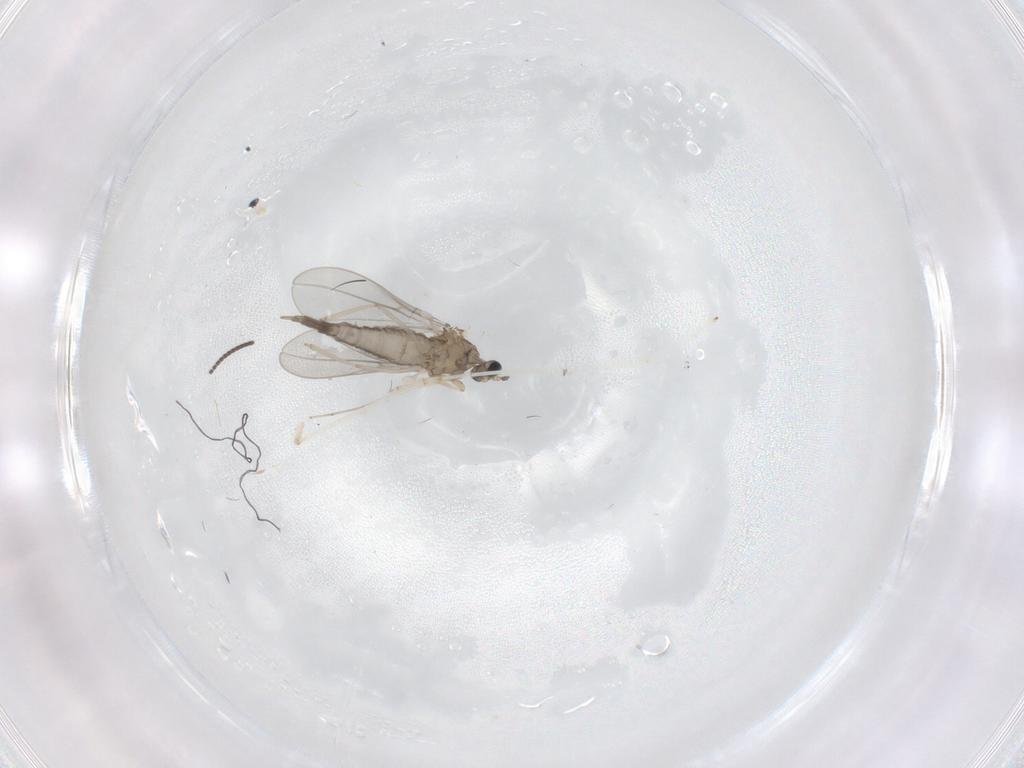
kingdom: Animalia
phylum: Arthropoda
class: Insecta
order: Diptera
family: Cecidomyiidae
